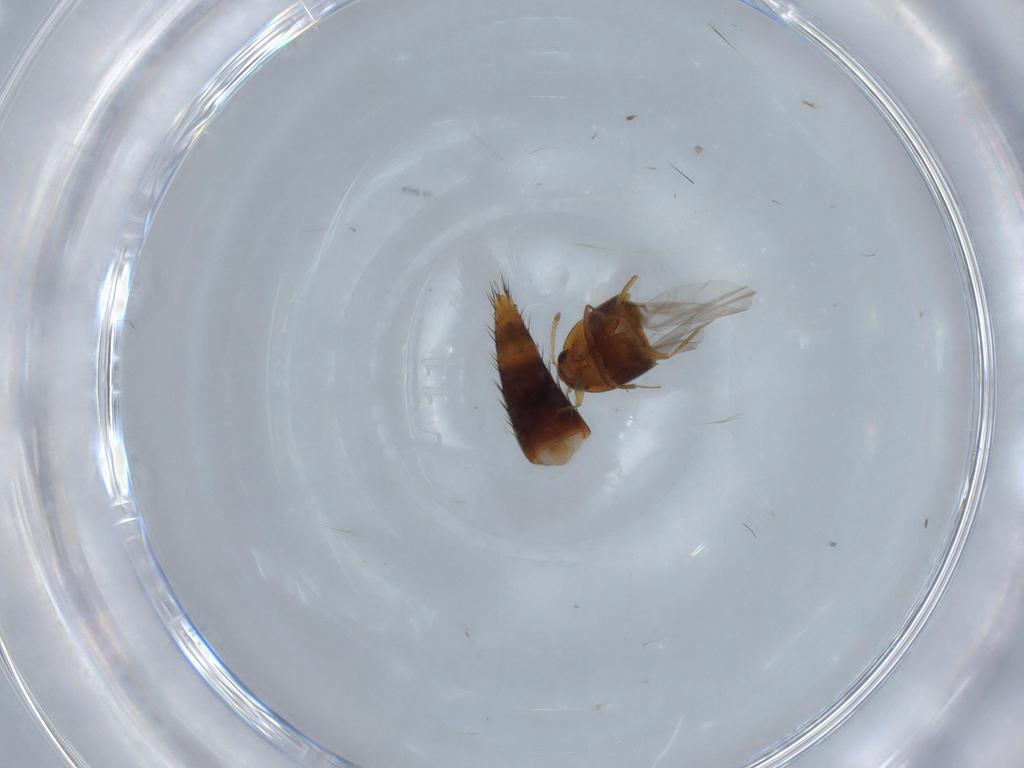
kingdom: Animalia
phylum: Arthropoda
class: Insecta
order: Coleoptera
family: Staphylinidae
